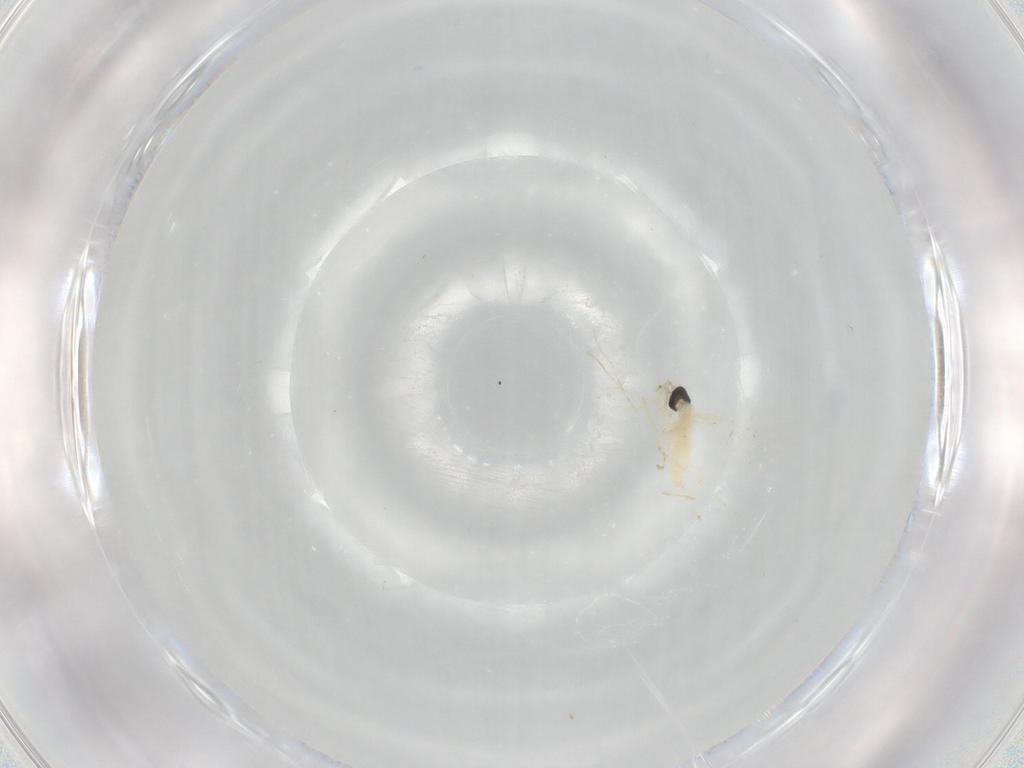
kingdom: Animalia
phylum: Arthropoda
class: Insecta
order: Diptera
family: Cecidomyiidae
